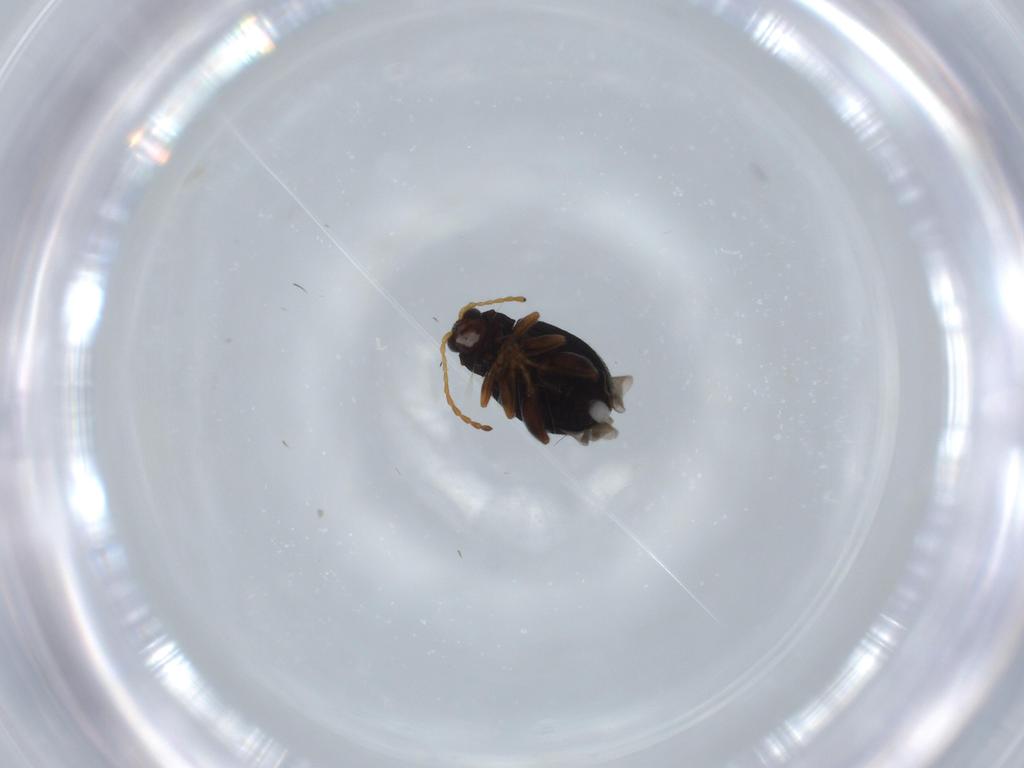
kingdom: Animalia
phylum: Arthropoda
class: Insecta
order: Coleoptera
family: Chrysomelidae
